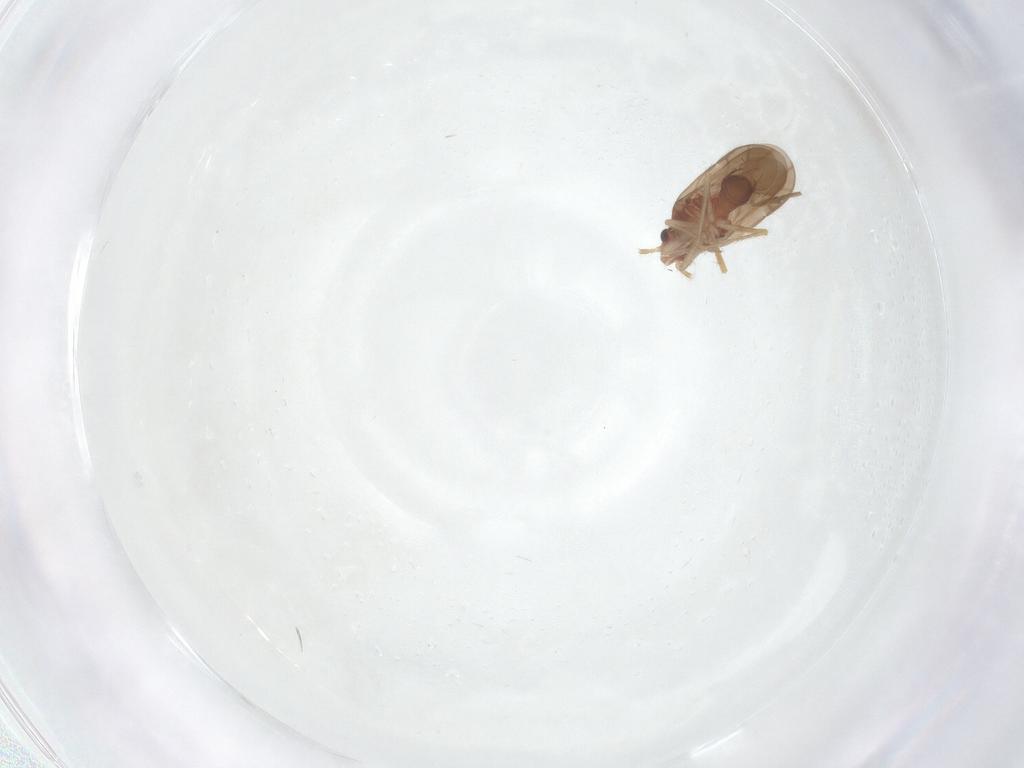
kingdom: Animalia
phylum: Arthropoda
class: Insecta
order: Hemiptera
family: Ceratocombidae
